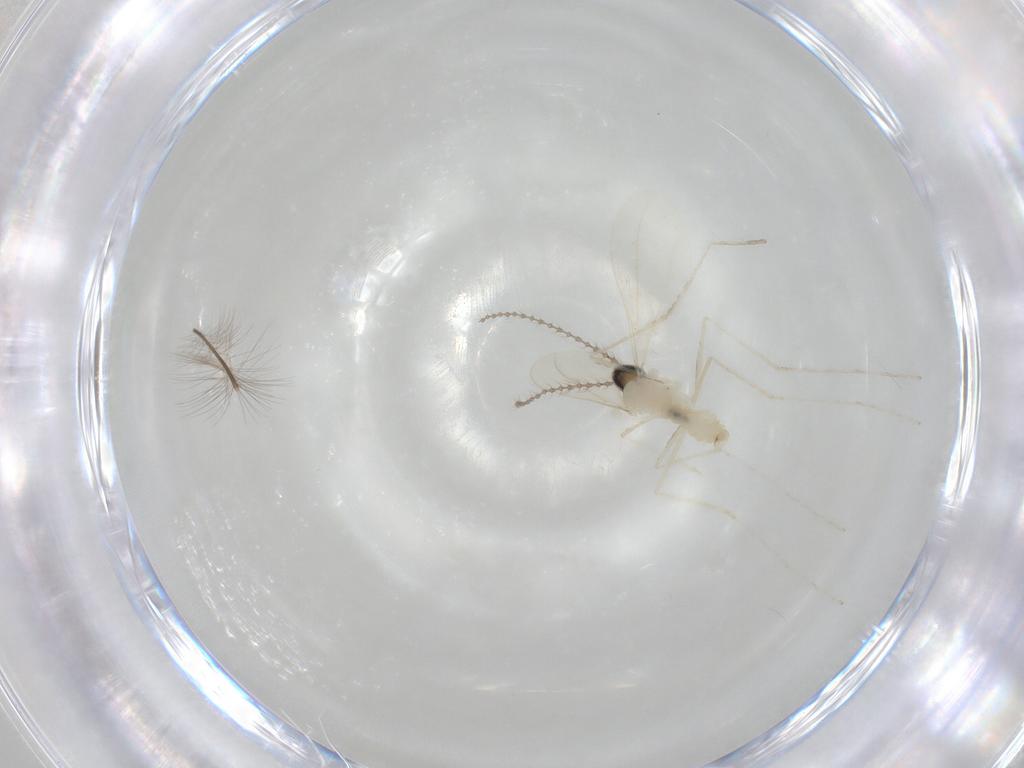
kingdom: Animalia
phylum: Arthropoda
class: Insecta
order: Diptera
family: Cecidomyiidae
